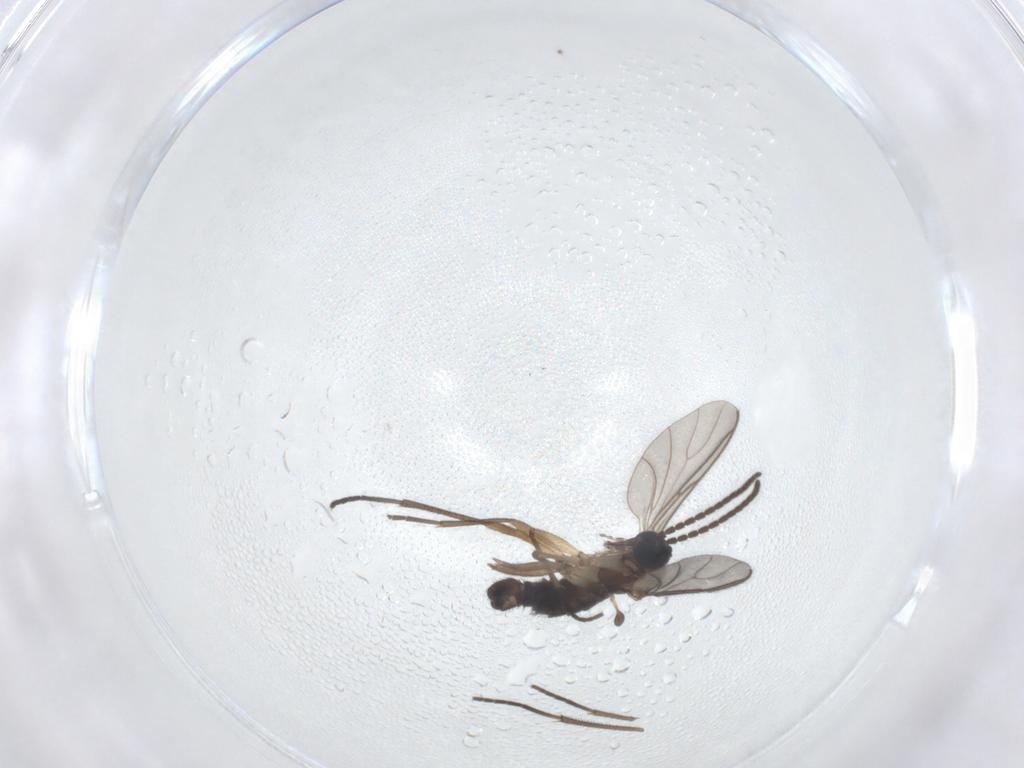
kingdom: Animalia
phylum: Arthropoda
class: Insecta
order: Diptera
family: Sciaridae
